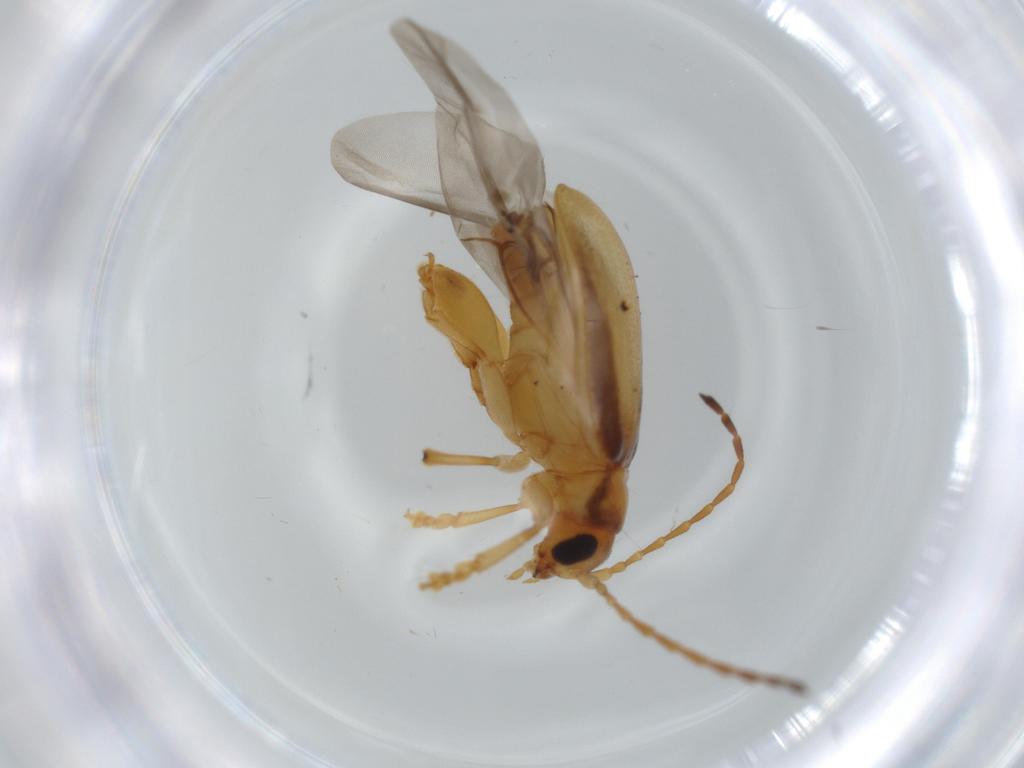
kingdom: Animalia
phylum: Arthropoda
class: Insecta
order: Coleoptera
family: Chrysomelidae
